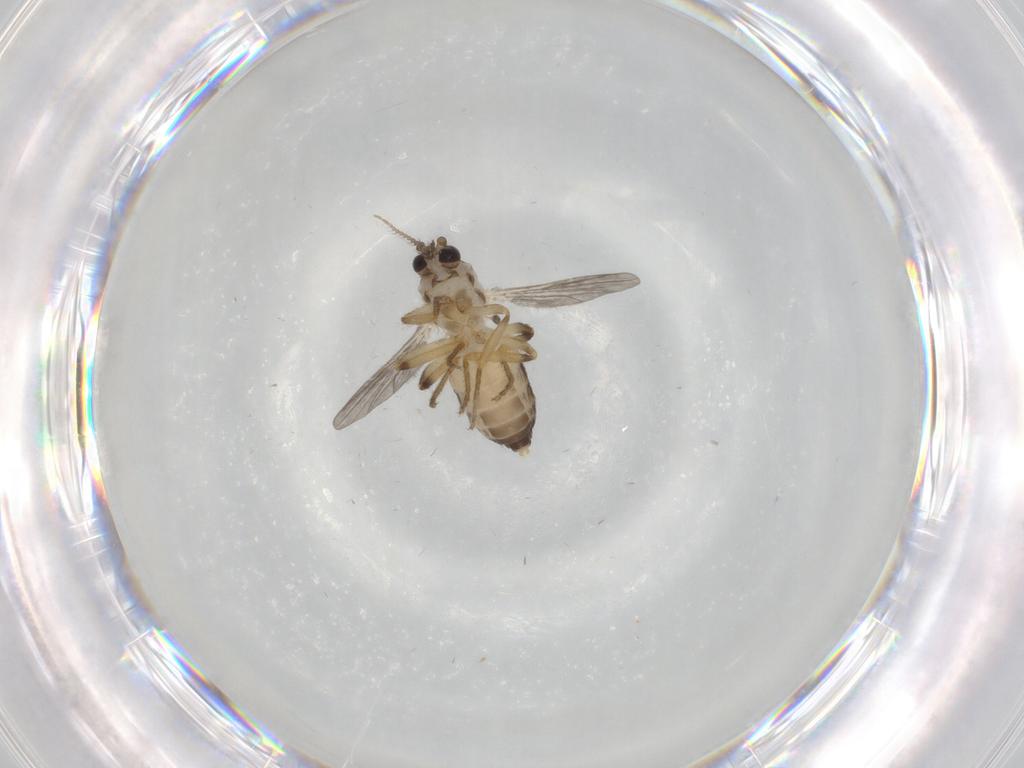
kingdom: Animalia
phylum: Arthropoda
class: Insecta
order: Diptera
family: Ceratopogonidae
